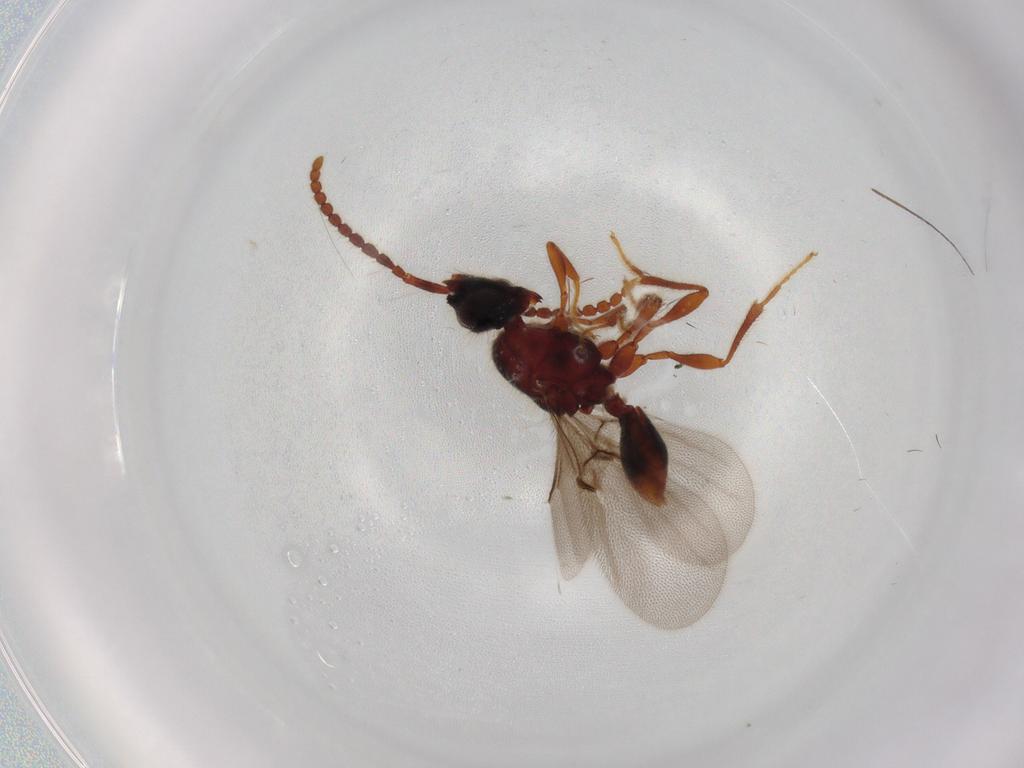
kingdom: Animalia
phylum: Arthropoda
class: Insecta
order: Hymenoptera
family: Diapriidae
